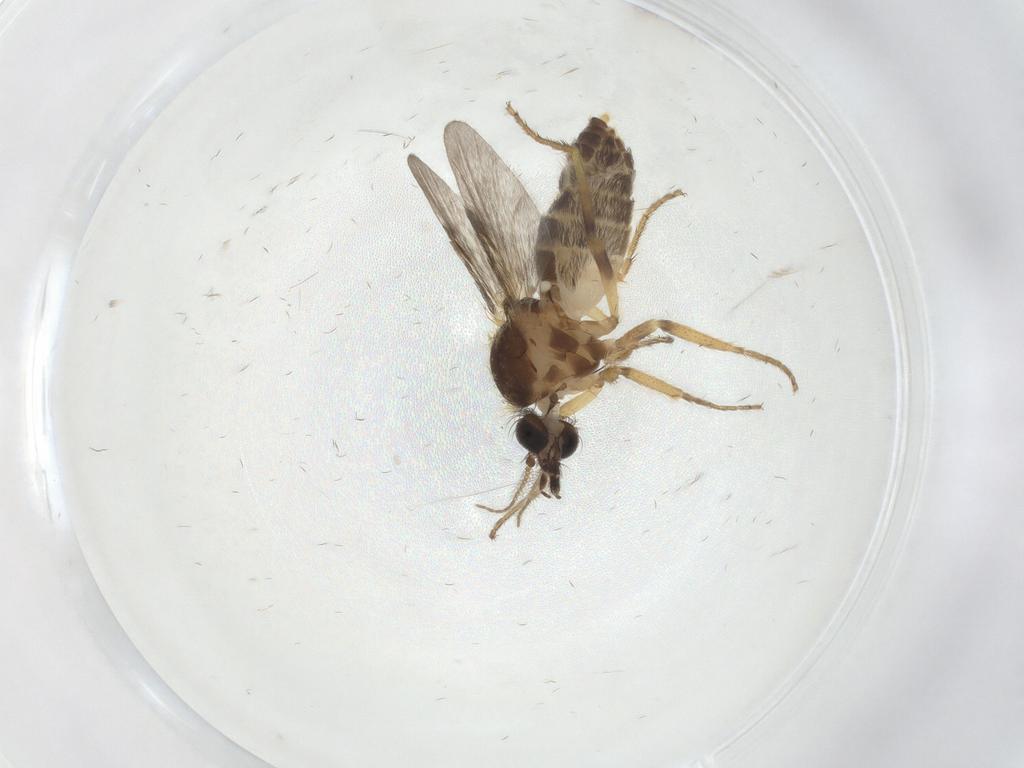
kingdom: Animalia
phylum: Arthropoda
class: Insecta
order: Diptera
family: Ceratopogonidae
